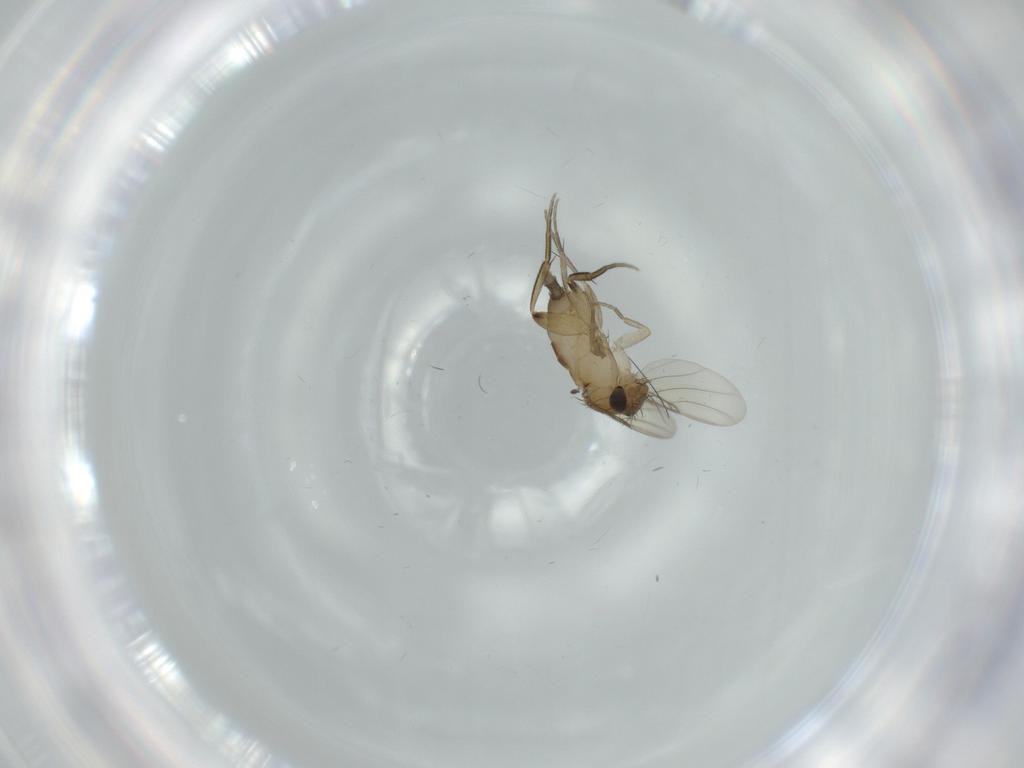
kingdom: Animalia
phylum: Arthropoda
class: Insecta
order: Diptera
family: Phoridae
